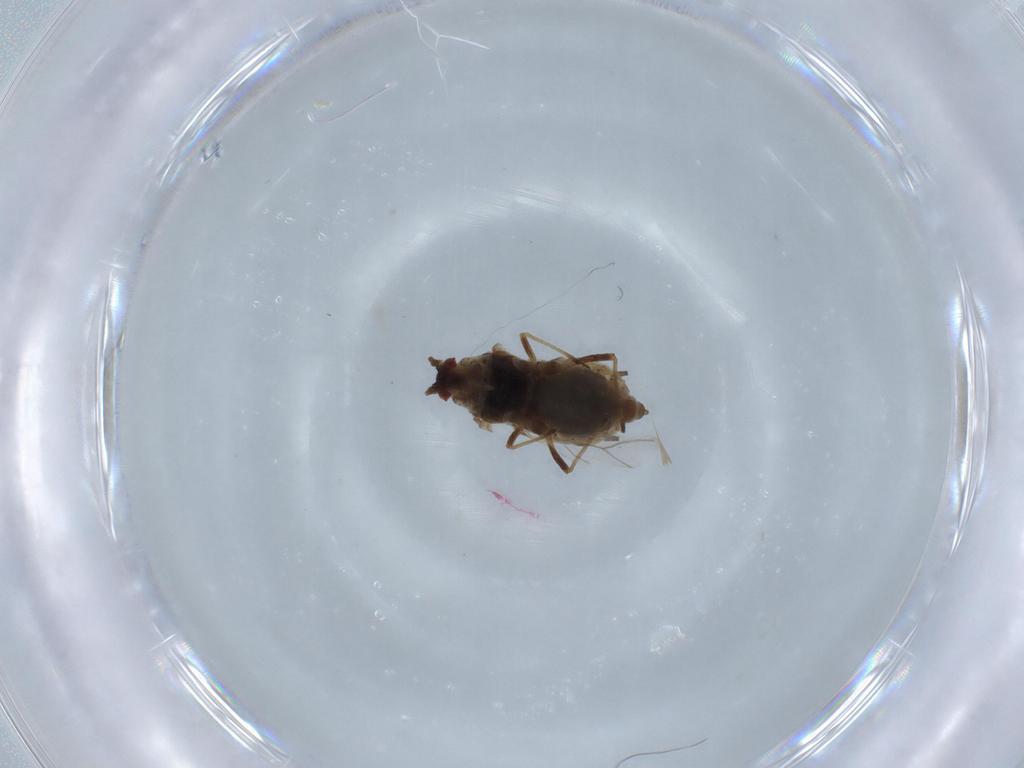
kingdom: Animalia
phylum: Arthropoda
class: Insecta
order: Hemiptera
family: Aphididae
